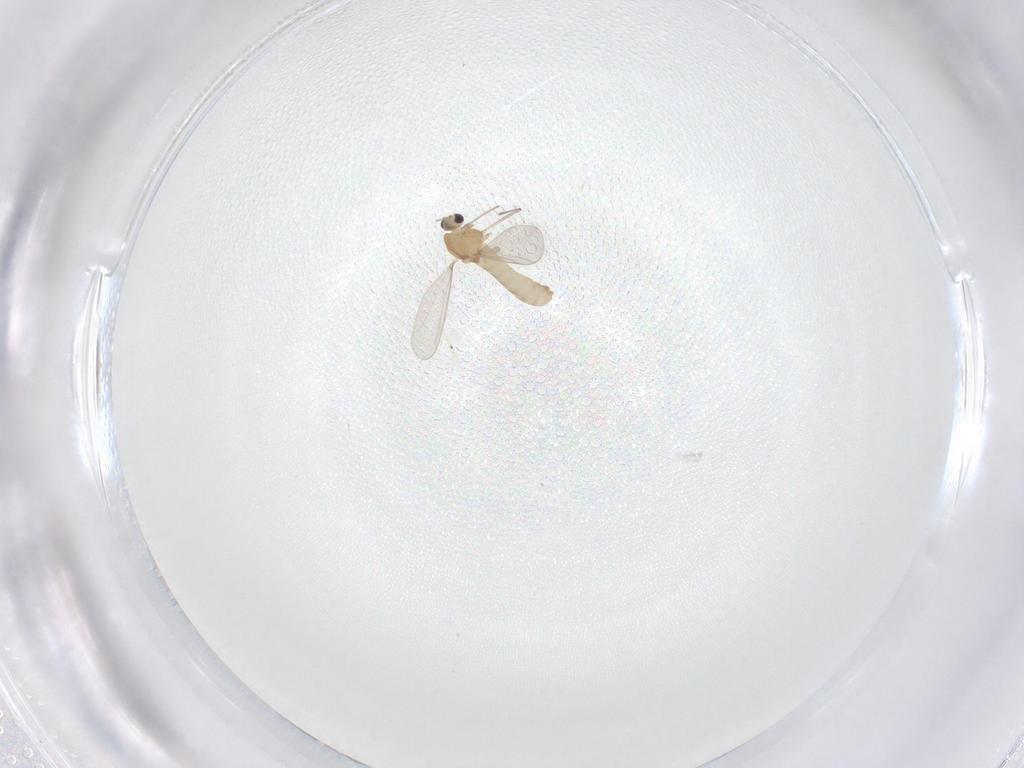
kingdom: Animalia
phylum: Arthropoda
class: Insecta
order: Diptera
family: Chironomidae
